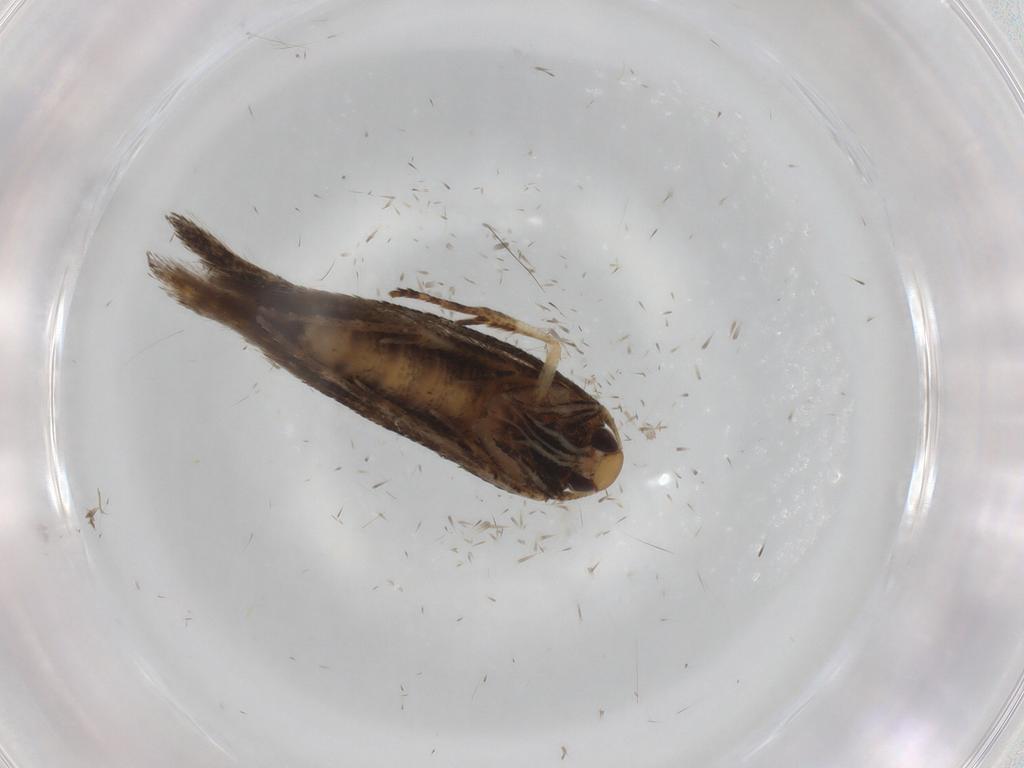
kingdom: Animalia
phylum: Arthropoda
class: Insecta
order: Lepidoptera
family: Cosmopterigidae
